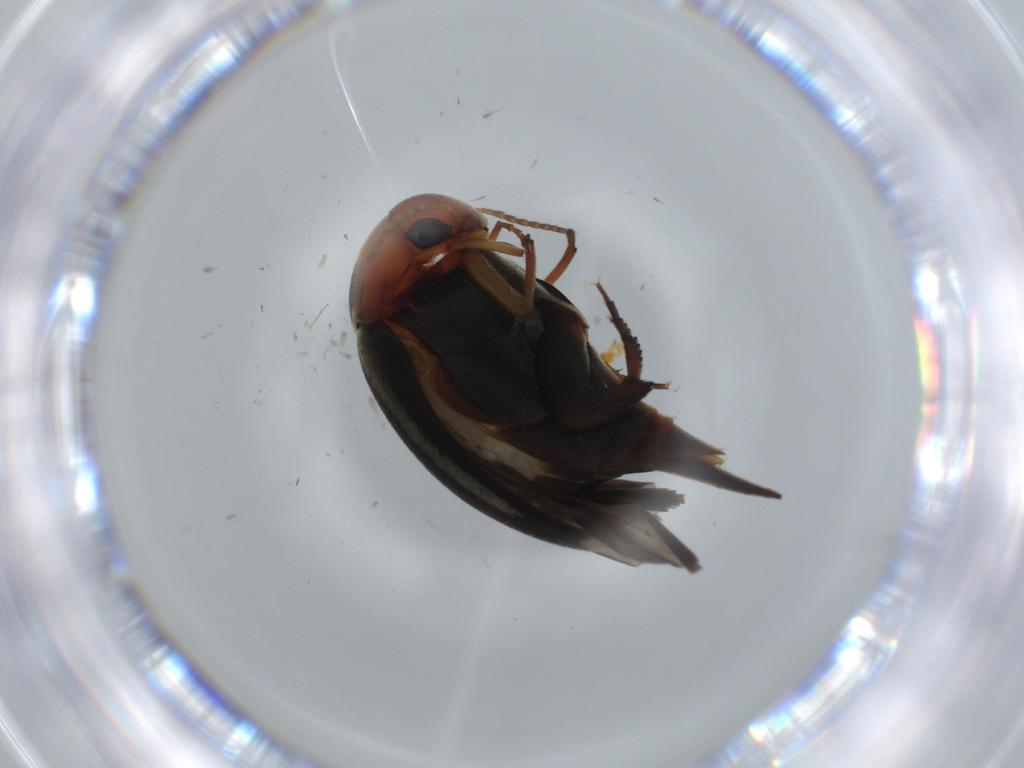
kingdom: Animalia
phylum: Arthropoda
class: Insecta
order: Coleoptera
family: Mordellidae
